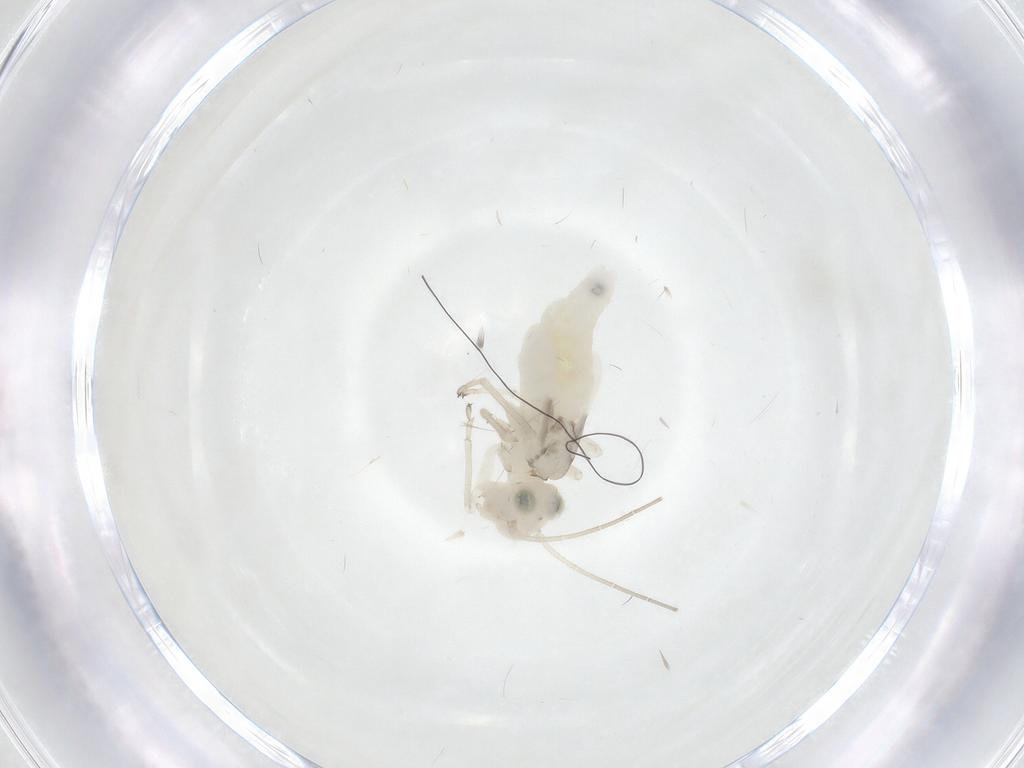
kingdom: Animalia
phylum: Arthropoda
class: Insecta
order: Psocodea
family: Caeciliusidae
